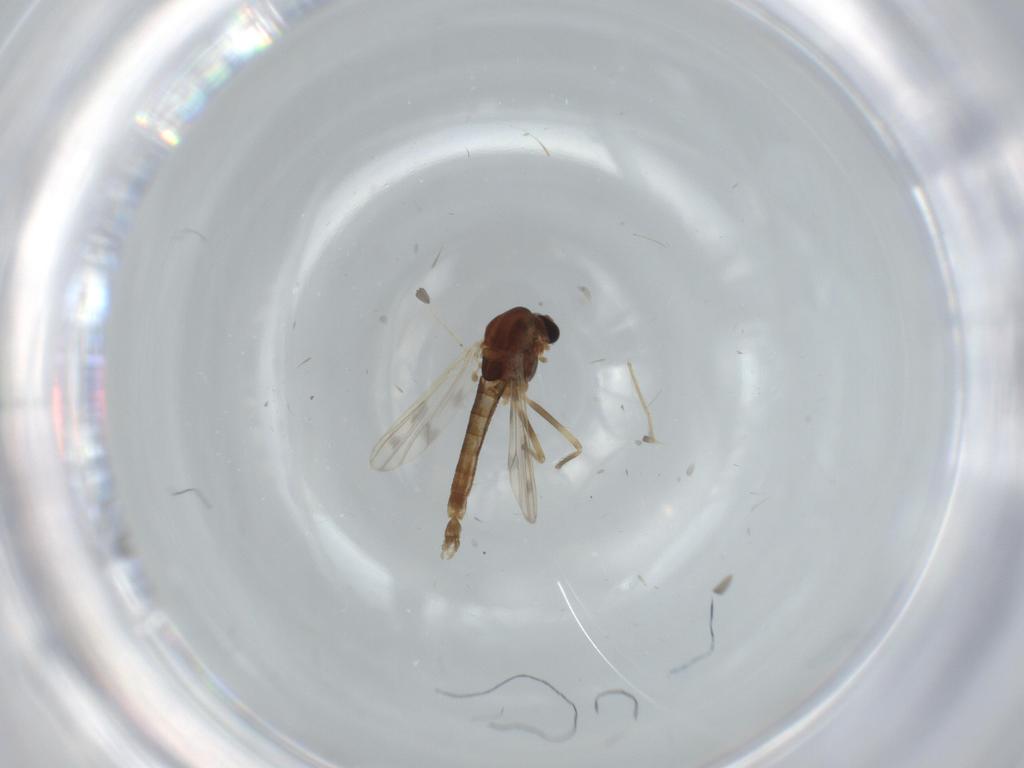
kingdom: Animalia
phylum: Arthropoda
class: Insecta
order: Diptera
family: Chironomidae
